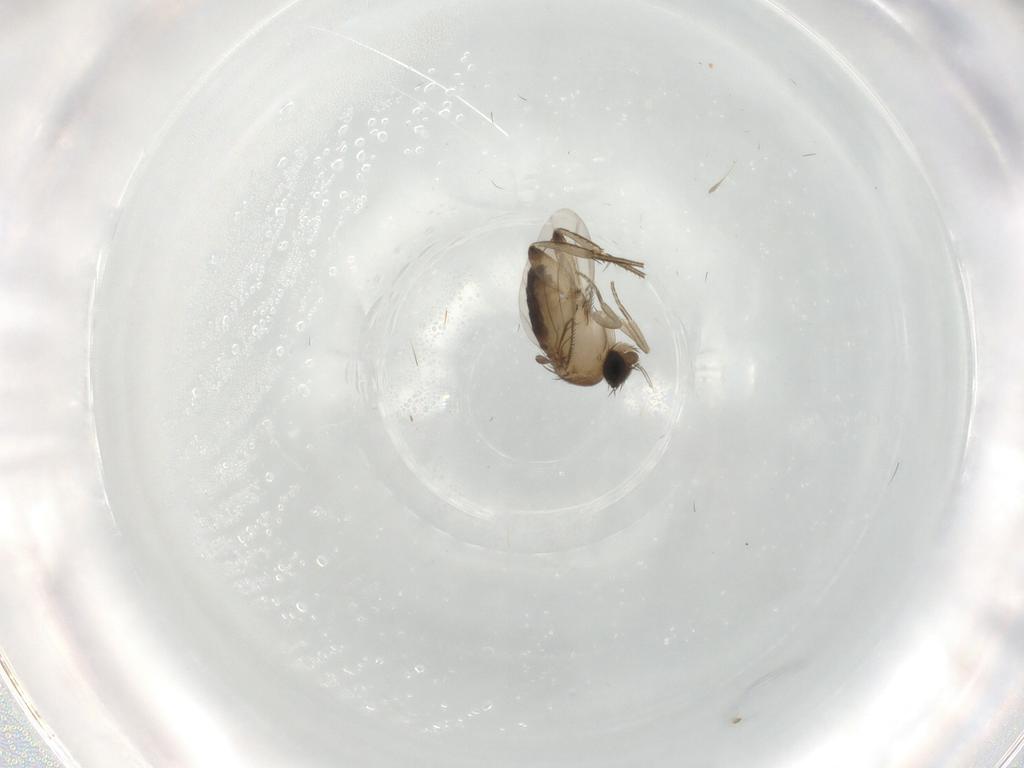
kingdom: Animalia
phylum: Arthropoda
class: Insecta
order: Diptera
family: Phoridae
